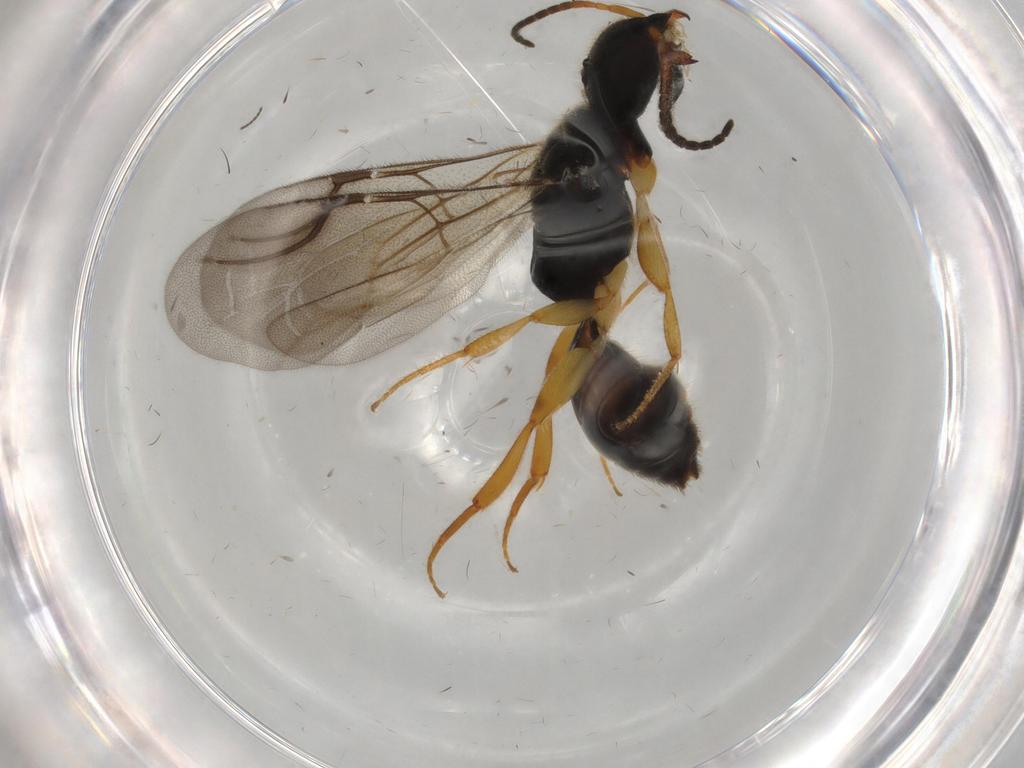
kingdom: Animalia
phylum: Arthropoda
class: Insecta
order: Hymenoptera
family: Bethylidae
